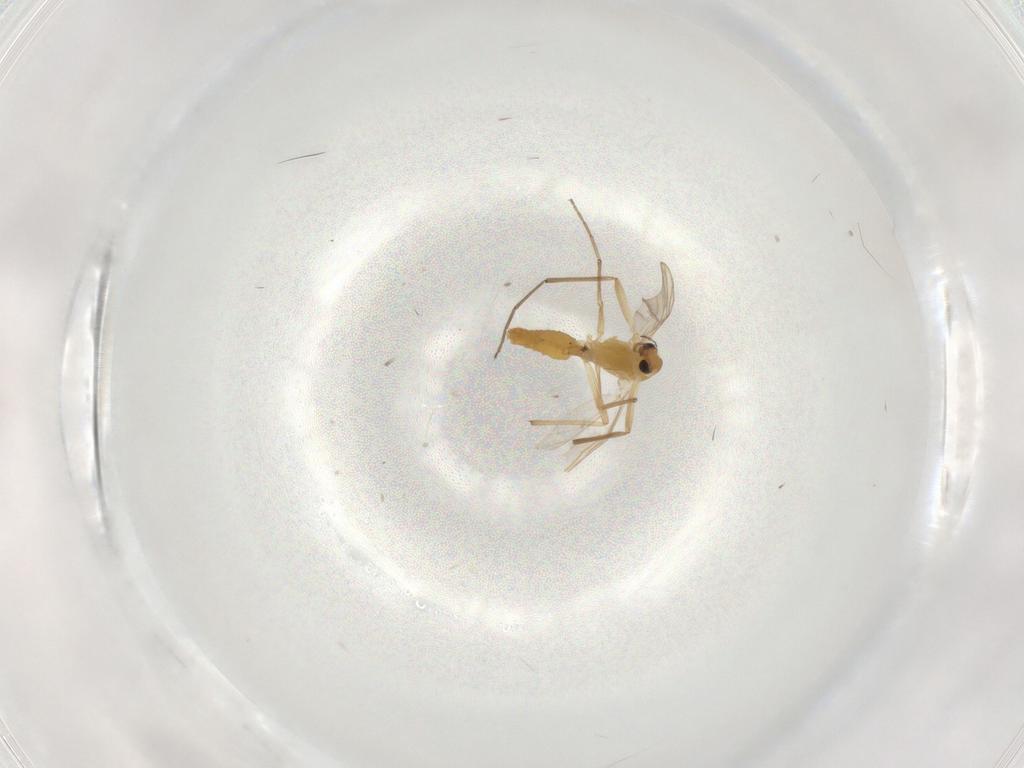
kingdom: Animalia
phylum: Arthropoda
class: Insecta
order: Diptera
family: Chironomidae
